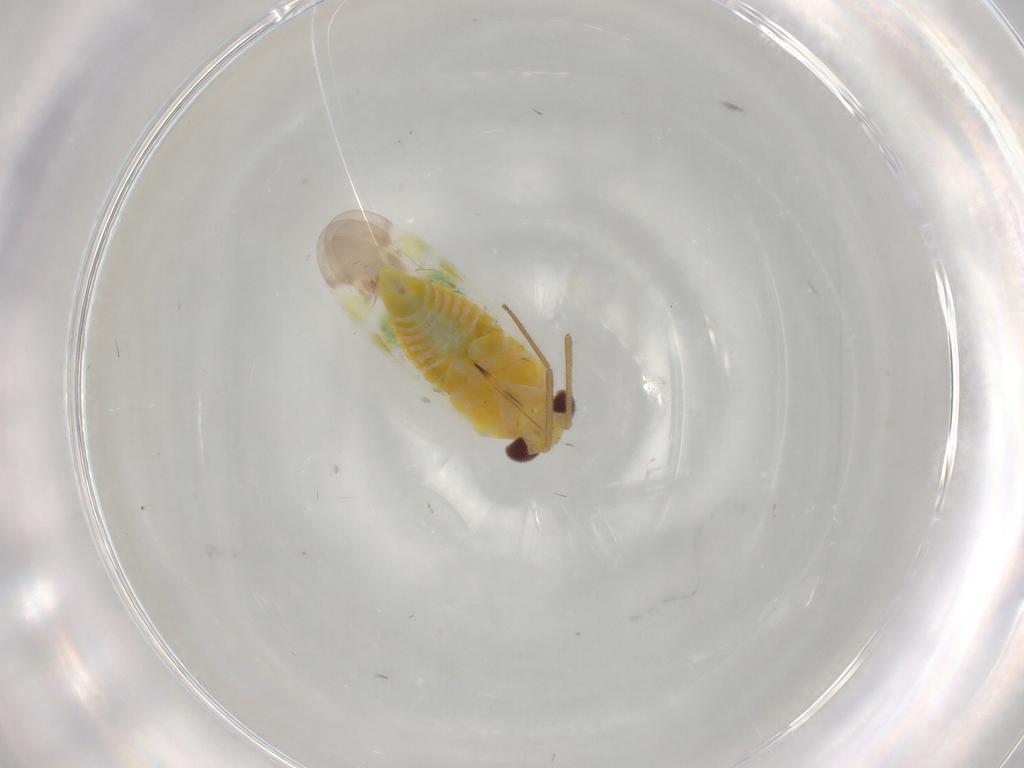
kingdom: Animalia
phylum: Arthropoda
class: Insecta
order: Hemiptera
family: Miridae
